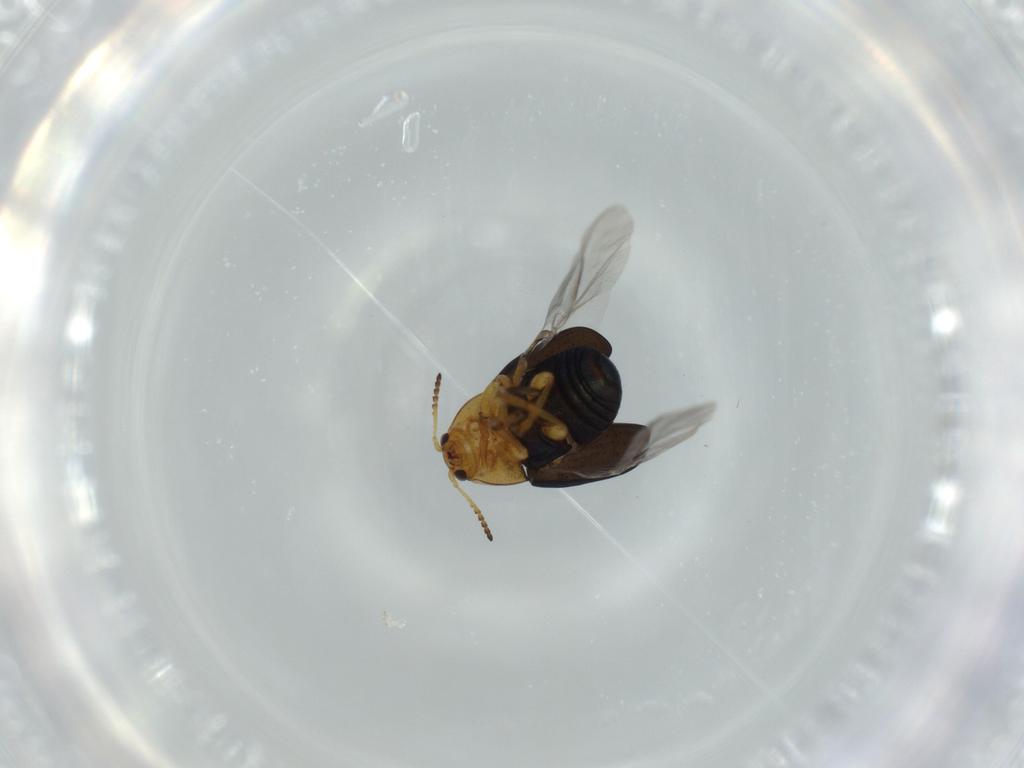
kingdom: Animalia
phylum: Arthropoda
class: Insecta
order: Coleoptera
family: Chrysomelidae
